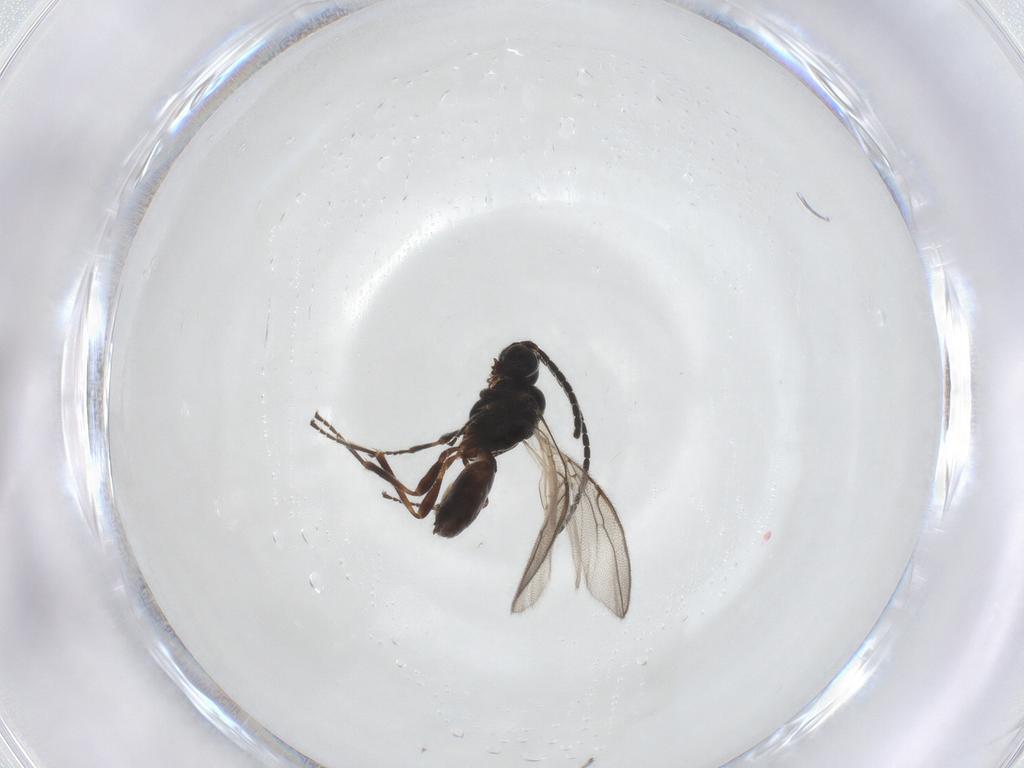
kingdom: Animalia
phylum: Arthropoda
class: Insecta
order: Hymenoptera
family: Braconidae
